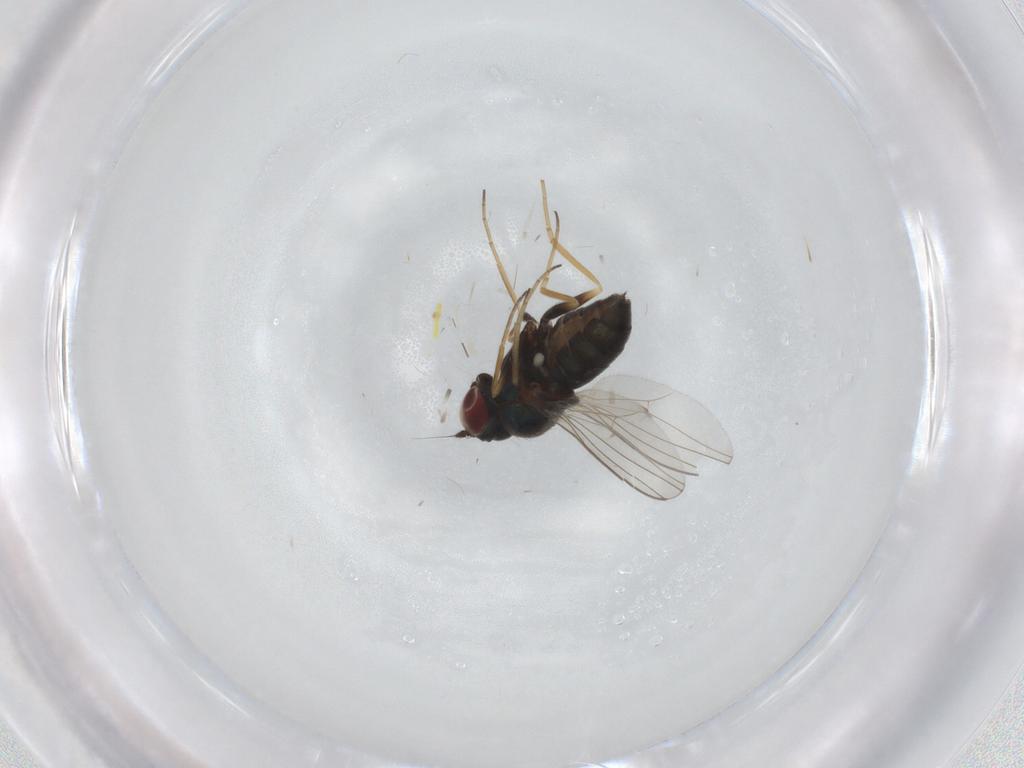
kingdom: Animalia
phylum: Arthropoda
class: Insecta
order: Diptera
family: Dolichopodidae
